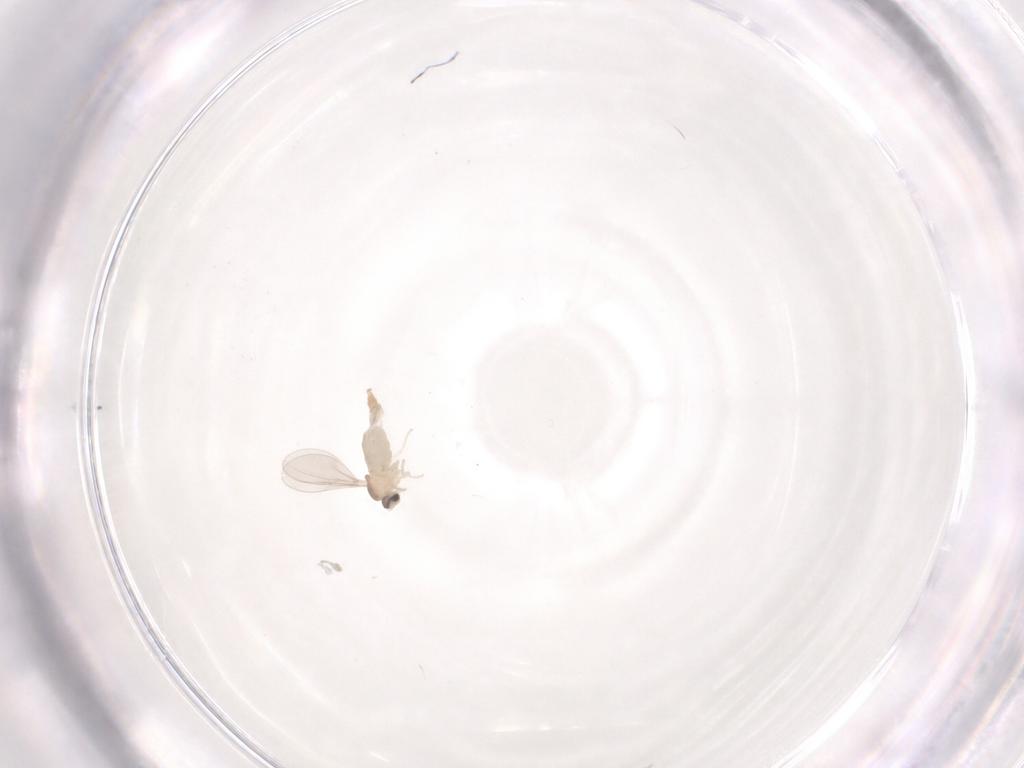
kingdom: Animalia
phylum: Arthropoda
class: Insecta
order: Diptera
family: Cecidomyiidae
